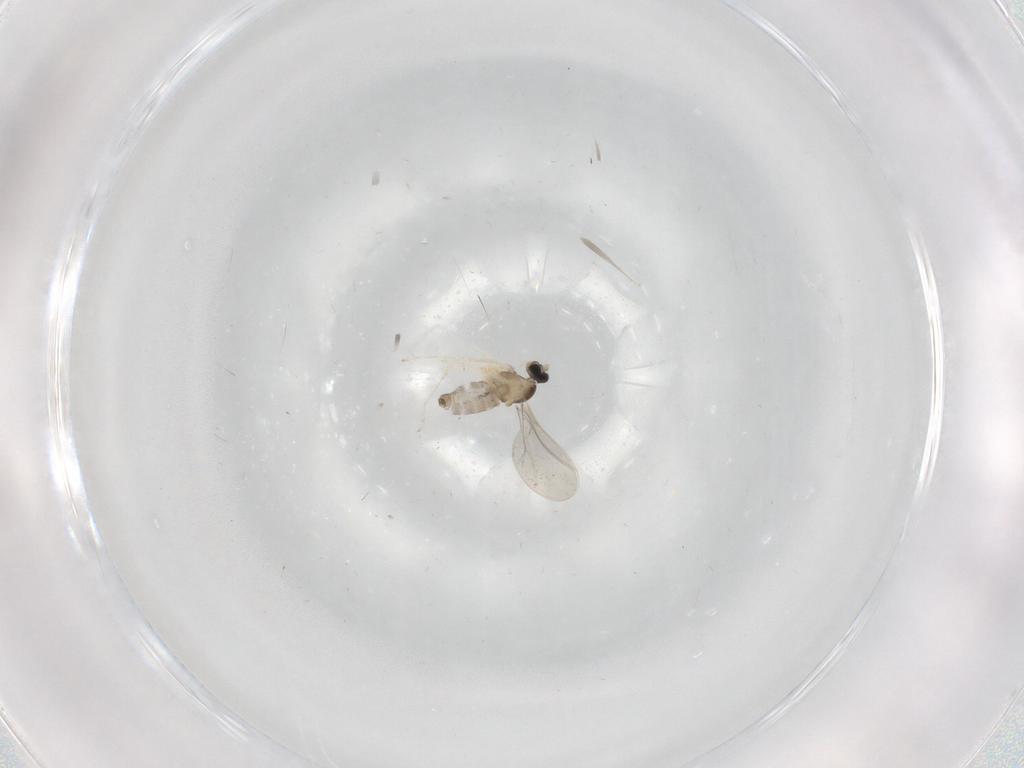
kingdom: Animalia
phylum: Arthropoda
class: Insecta
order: Diptera
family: Cecidomyiidae
